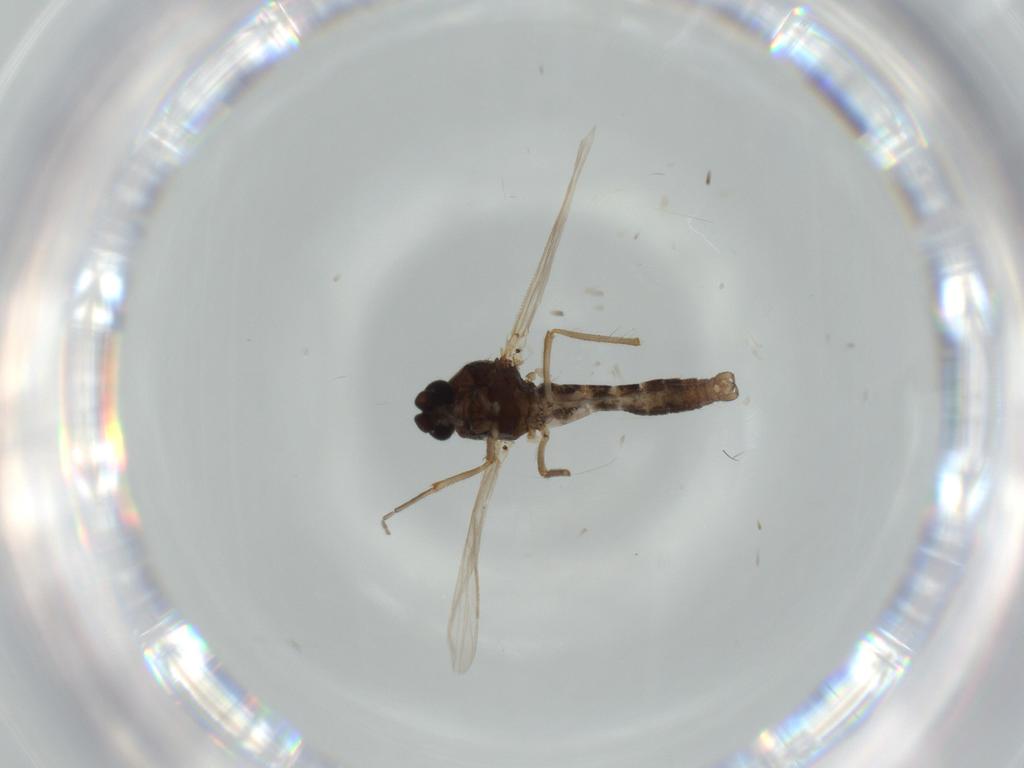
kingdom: Animalia
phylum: Arthropoda
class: Insecta
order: Diptera
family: Ceratopogonidae
